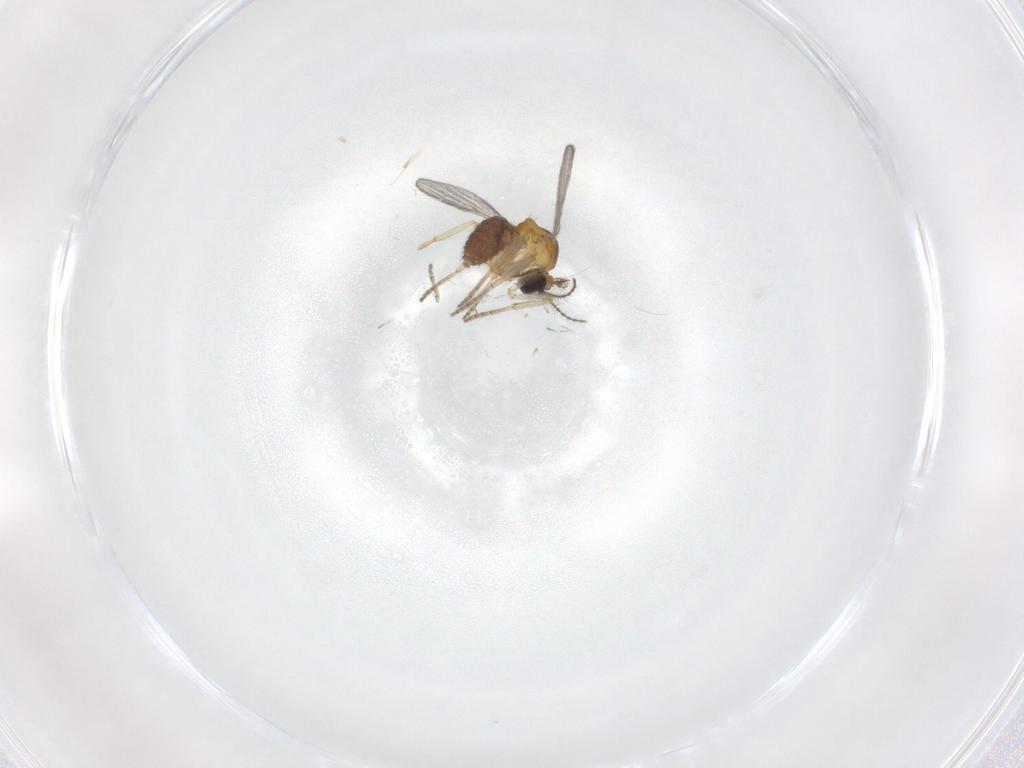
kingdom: Animalia
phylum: Arthropoda
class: Insecta
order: Diptera
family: Ceratopogonidae
